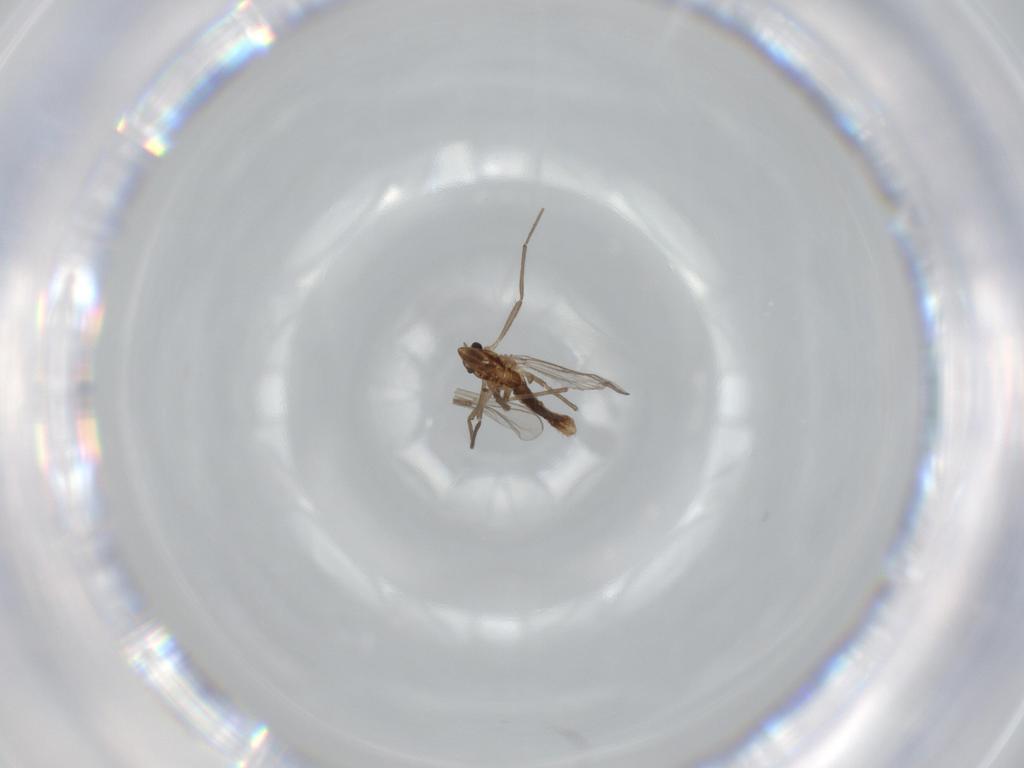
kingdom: Animalia
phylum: Arthropoda
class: Insecta
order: Diptera
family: Chironomidae
